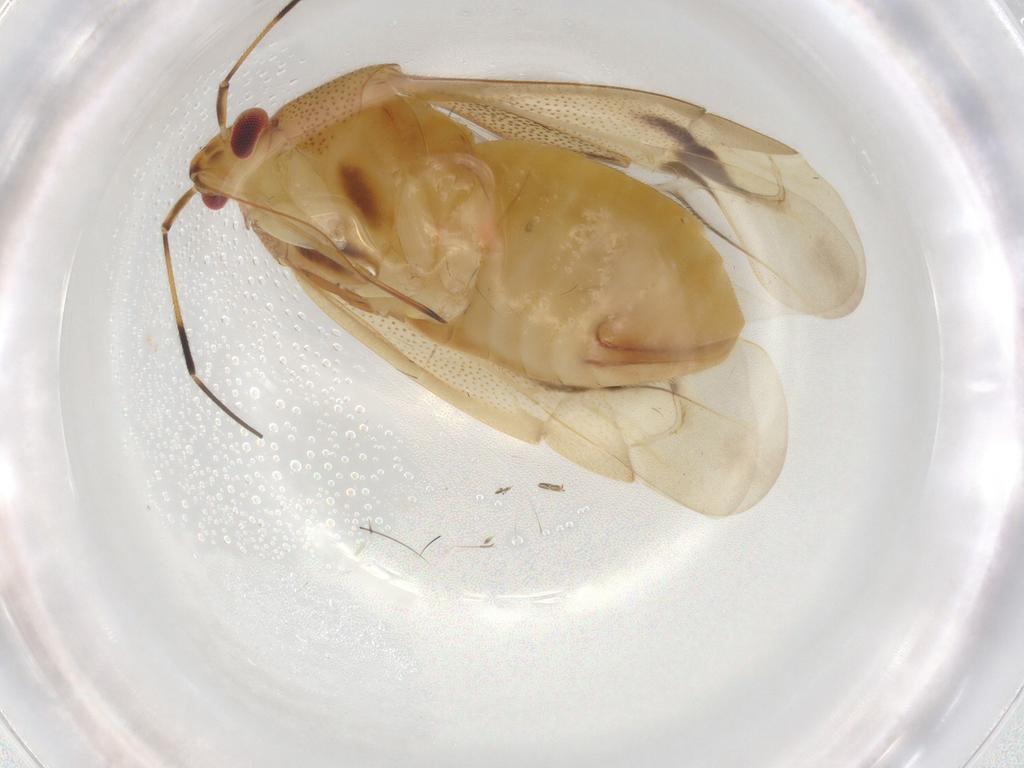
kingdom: Animalia
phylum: Arthropoda
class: Insecta
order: Hemiptera
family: Miridae
